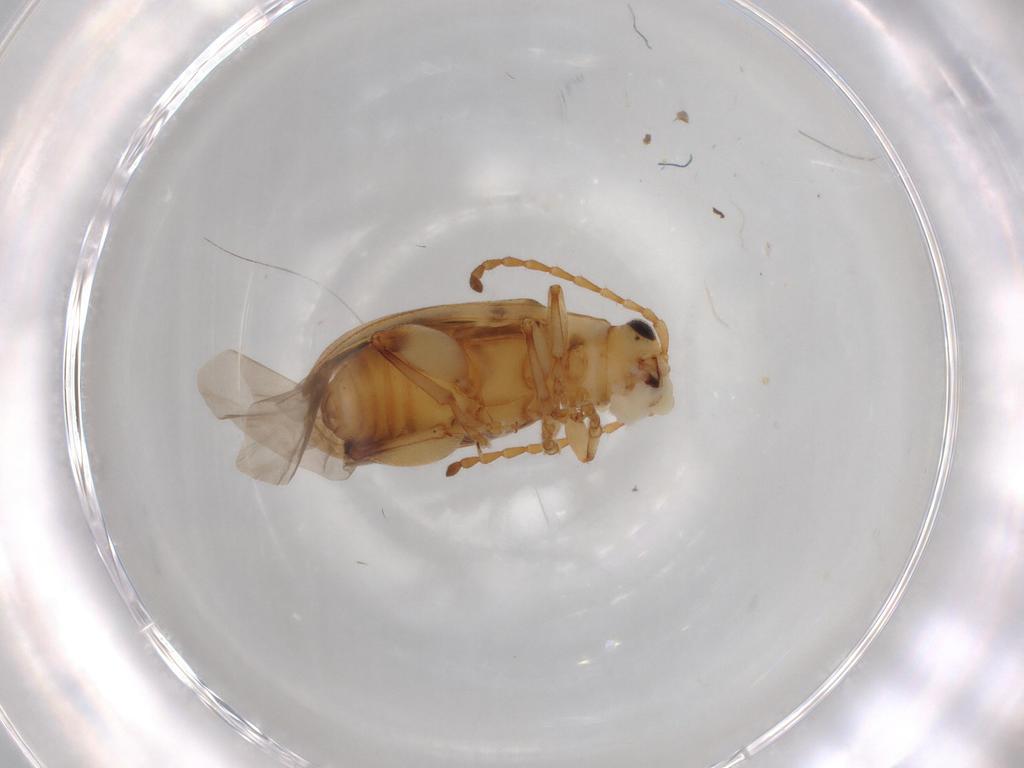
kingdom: Animalia
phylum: Arthropoda
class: Insecta
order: Coleoptera
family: Chrysomelidae
